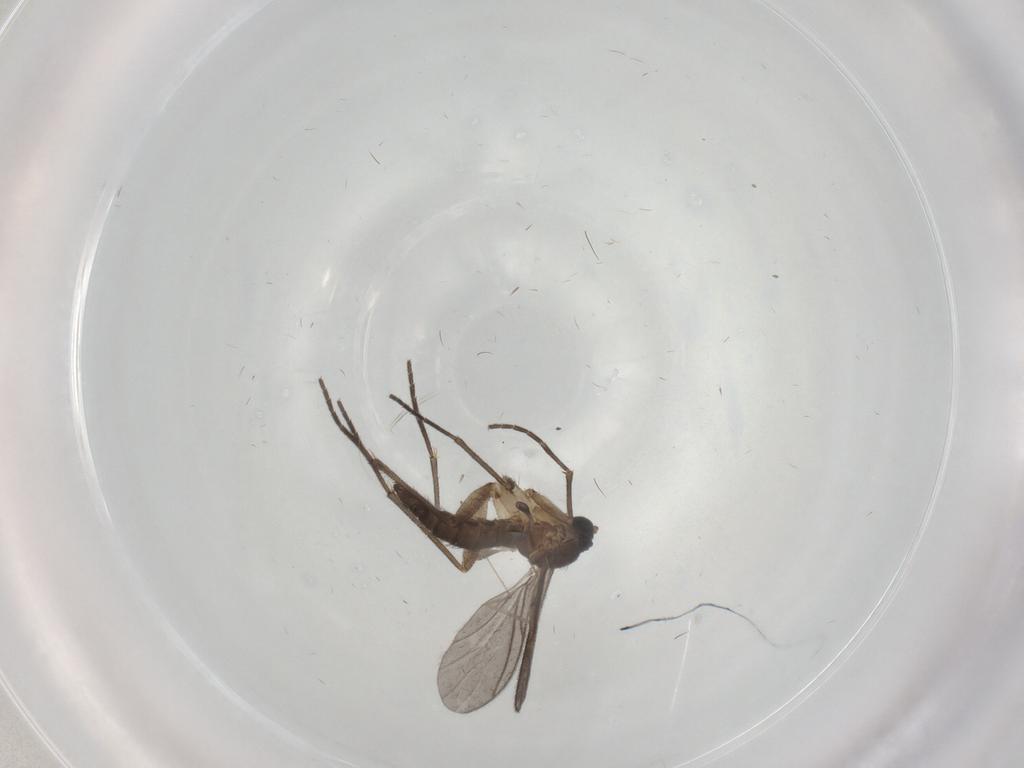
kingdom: Animalia
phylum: Arthropoda
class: Insecta
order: Diptera
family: Sciaridae
